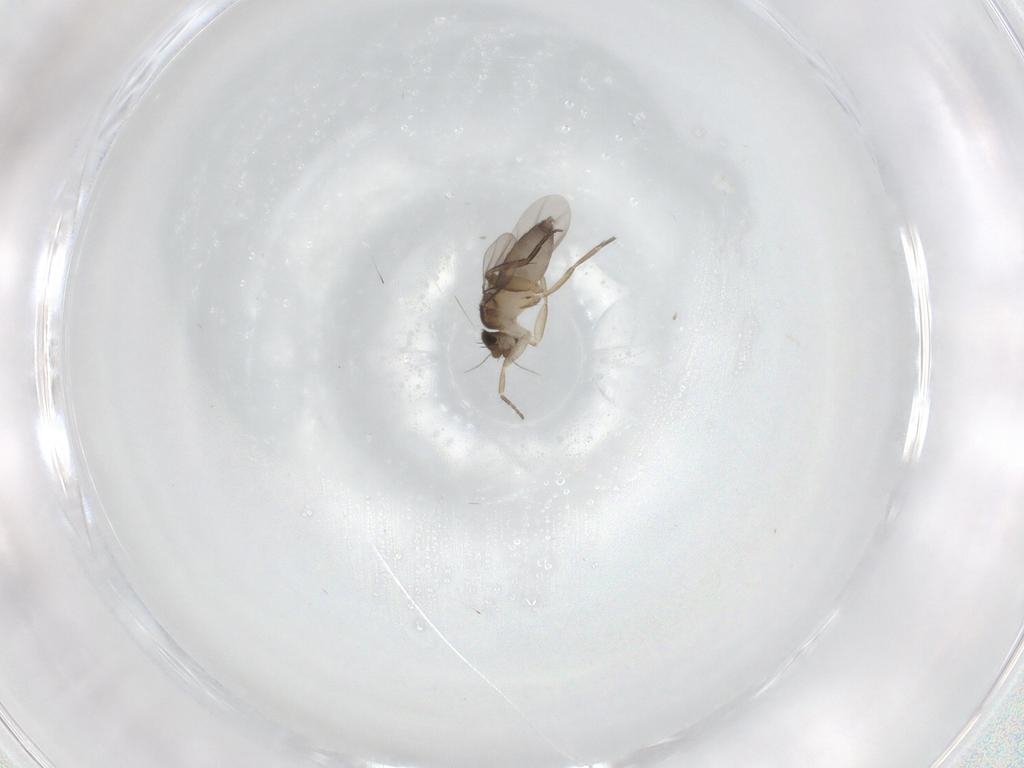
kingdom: Animalia
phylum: Arthropoda
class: Insecta
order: Diptera
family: Phoridae
